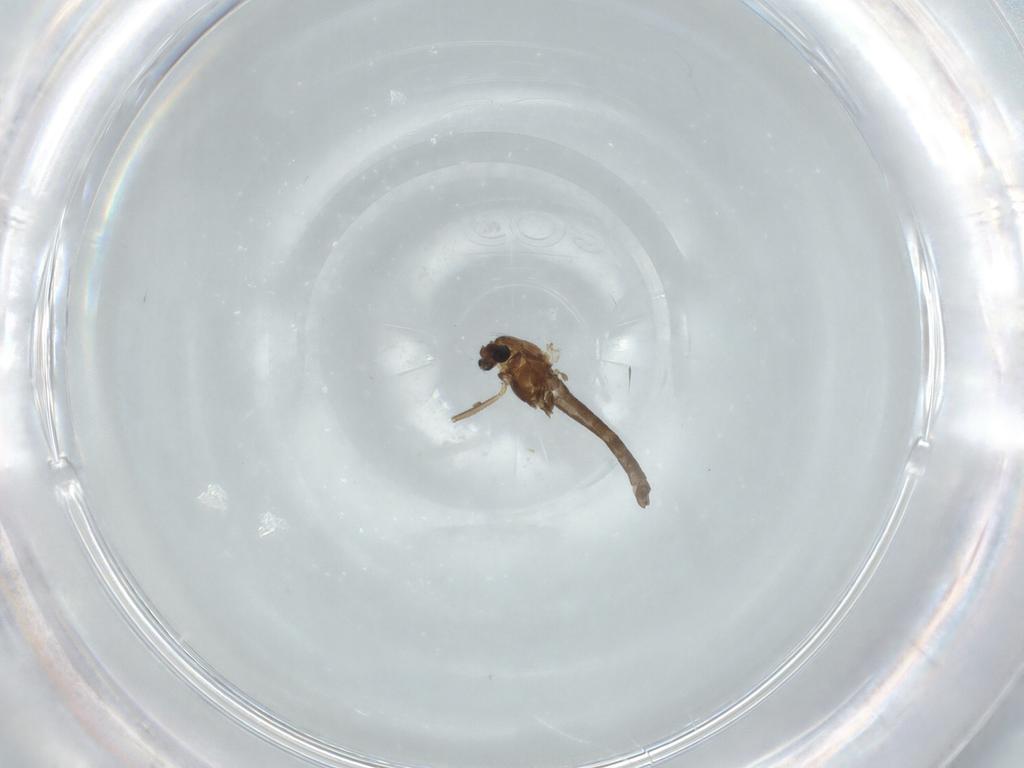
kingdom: Animalia
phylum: Arthropoda
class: Insecta
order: Diptera
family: Chironomidae
